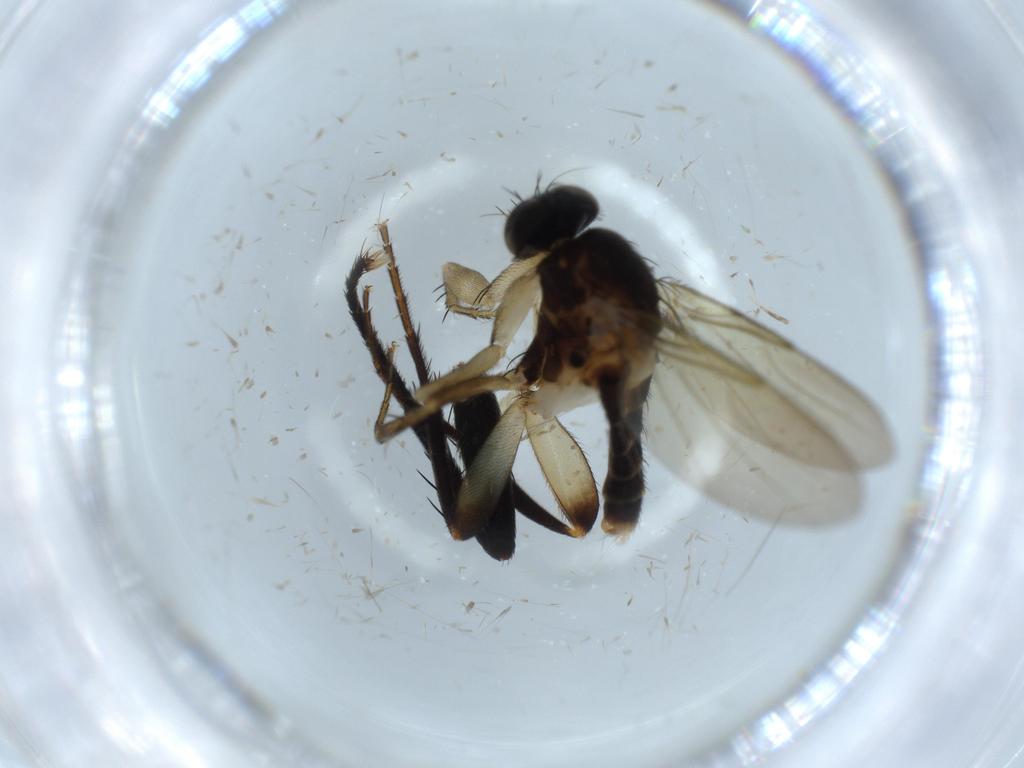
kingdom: Animalia
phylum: Arthropoda
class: Insecta
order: Diptera
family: Phoridae
